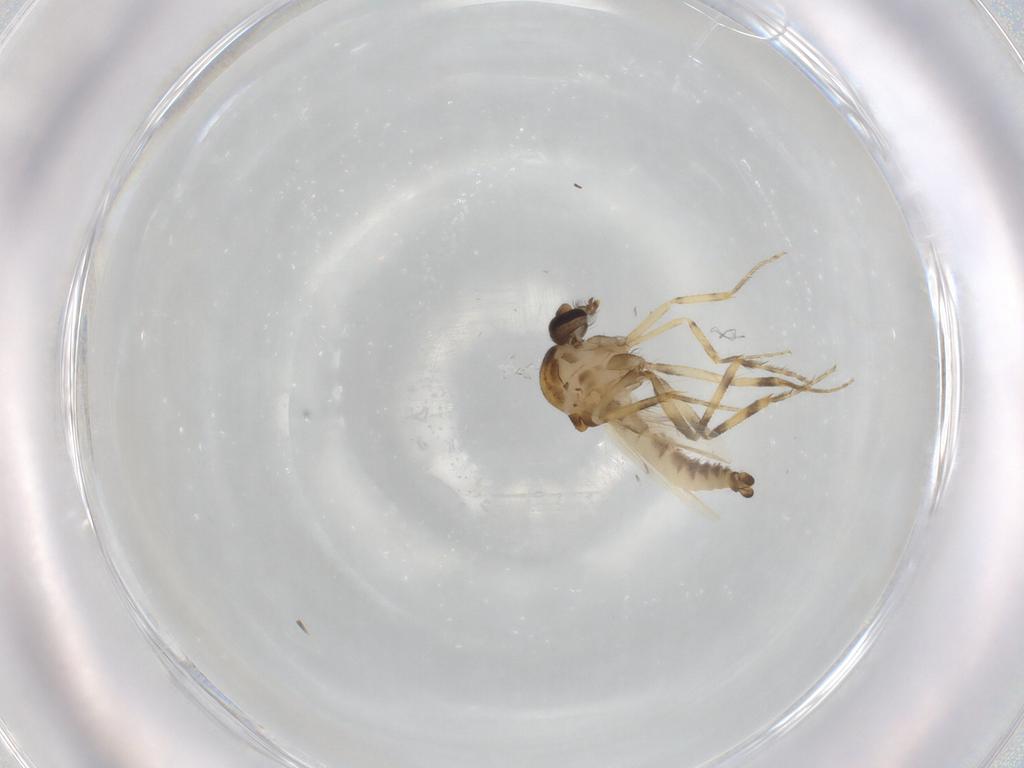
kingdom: Animalia
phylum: Arthropoda
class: Insecta
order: Diptera
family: Ceratopogonidae
